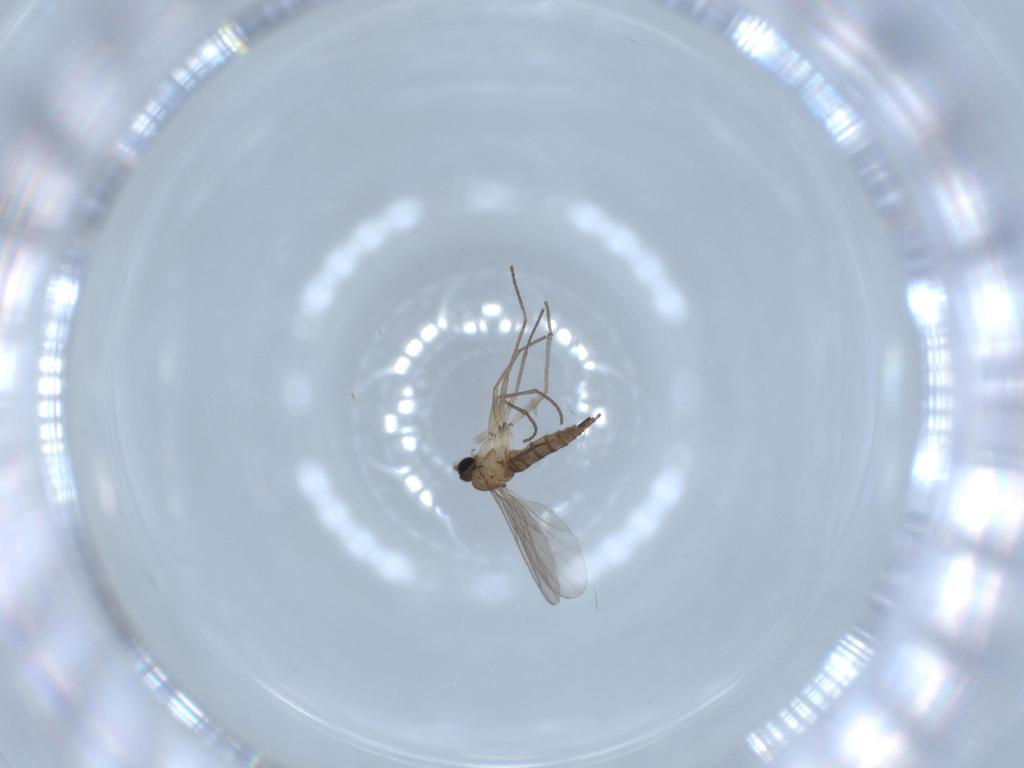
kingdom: Animalia
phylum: Arthropoda
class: Insecta
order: Diptera
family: Sciaridae
